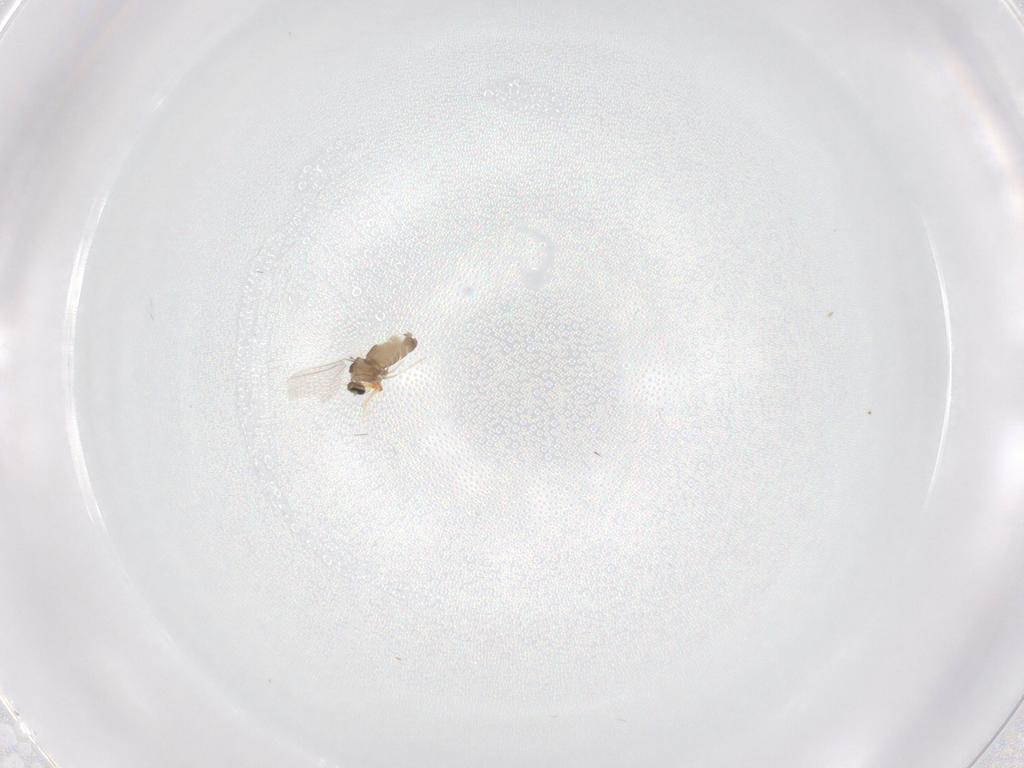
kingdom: Animalia
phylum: Arthropoda
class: Insecta
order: Diptera
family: Cecidomyiidae
